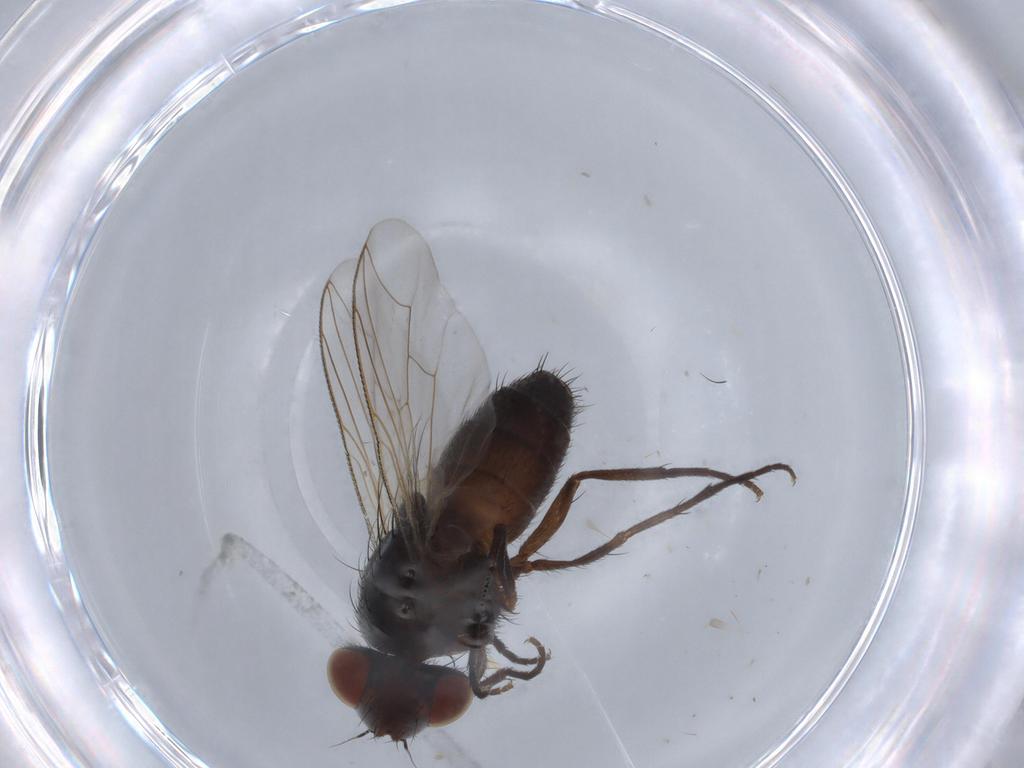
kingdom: Animalia
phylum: Arthropoda
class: Insecta
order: Diptera
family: Sarcophagidae
